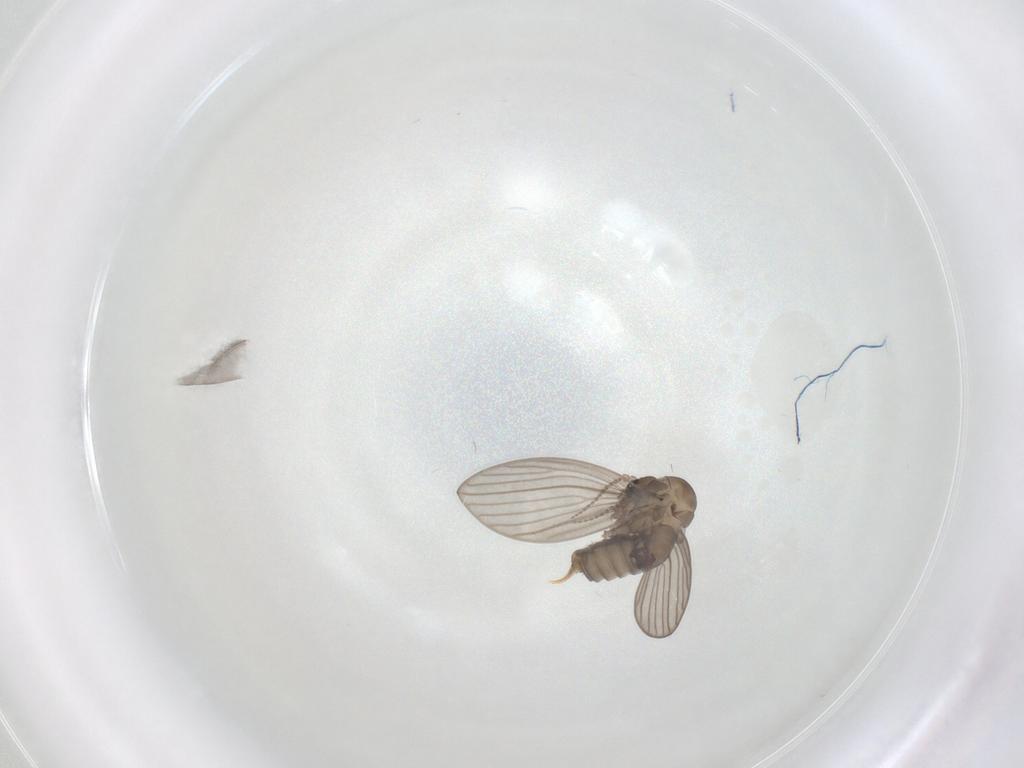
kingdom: Animalia
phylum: Arthropoda
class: Insecta
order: Diptera
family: Psychodidae
